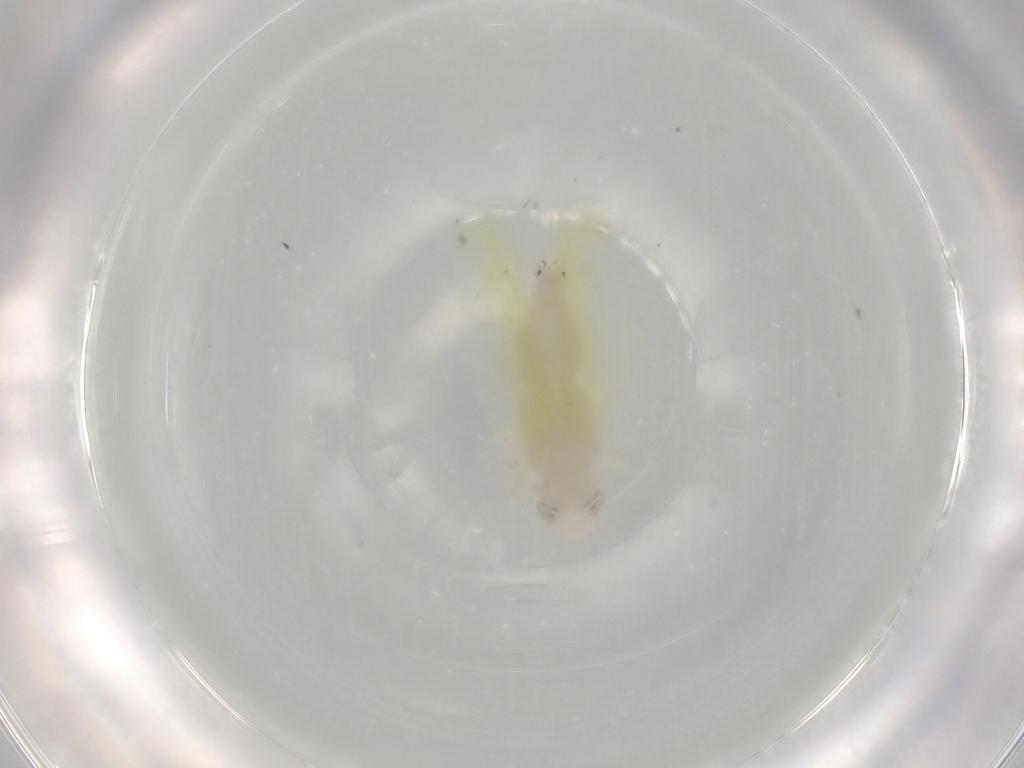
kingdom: Animalia
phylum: Arthropoda
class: Insecta
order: Hemiptera
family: Cicadellidae
